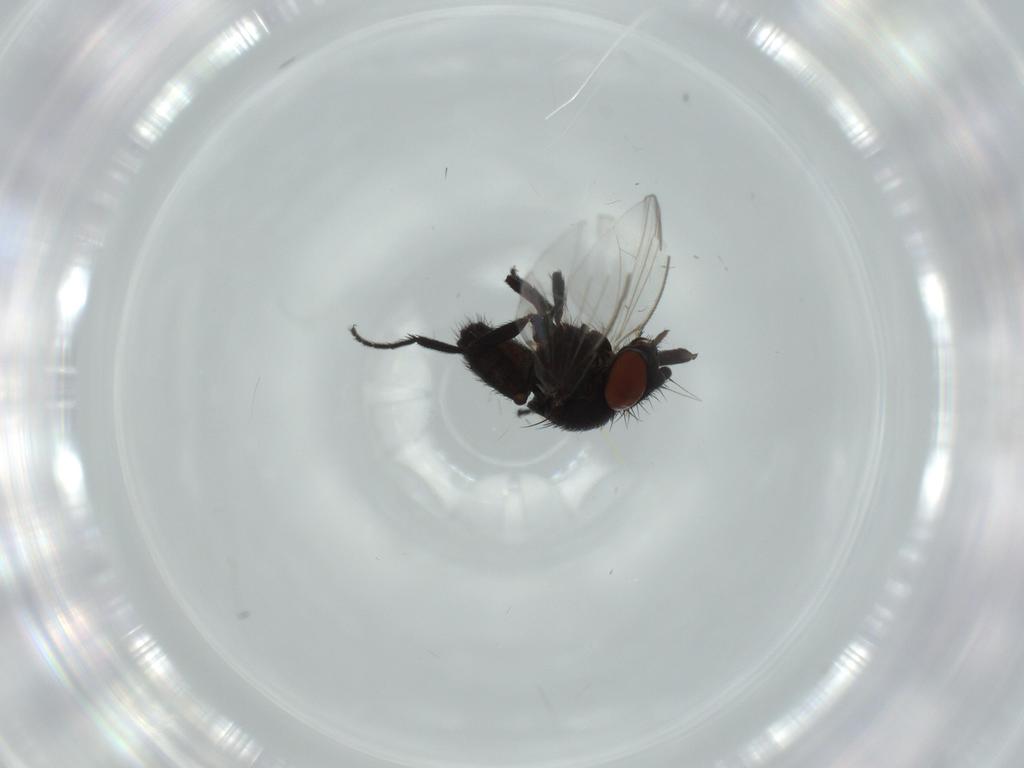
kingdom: Animalia
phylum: Arthropoda
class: Insecta
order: Diptera
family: Milichiidae
